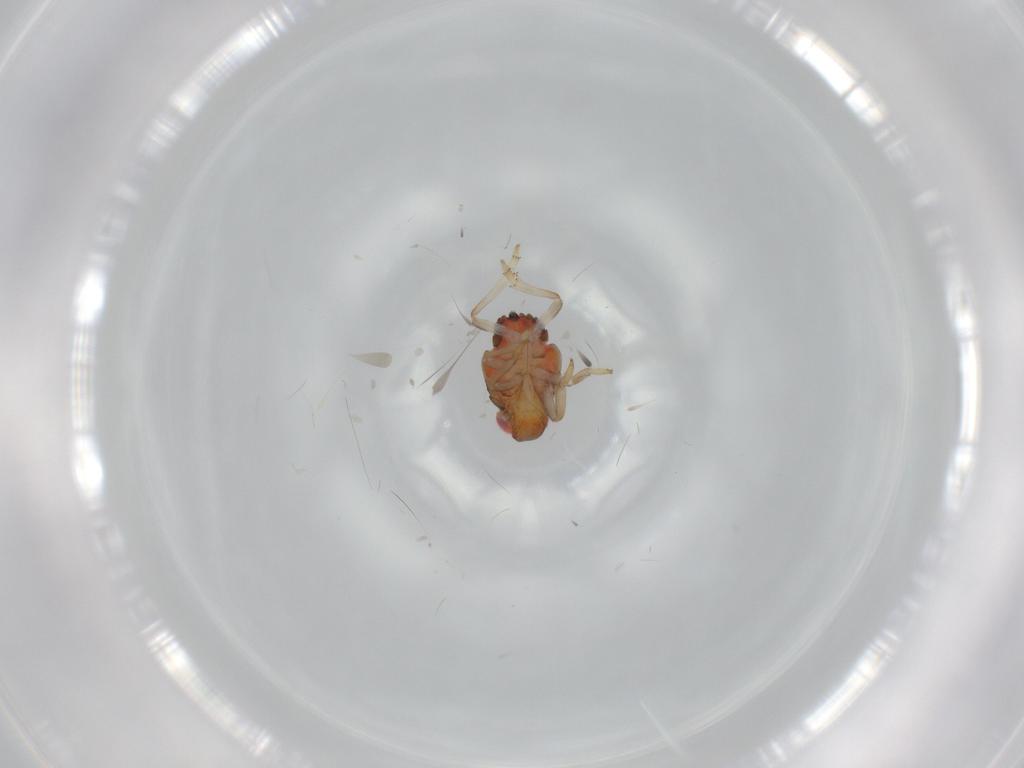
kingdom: Animalia
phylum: Arthropoda
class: Insecta
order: Hemiptera
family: Issidae
